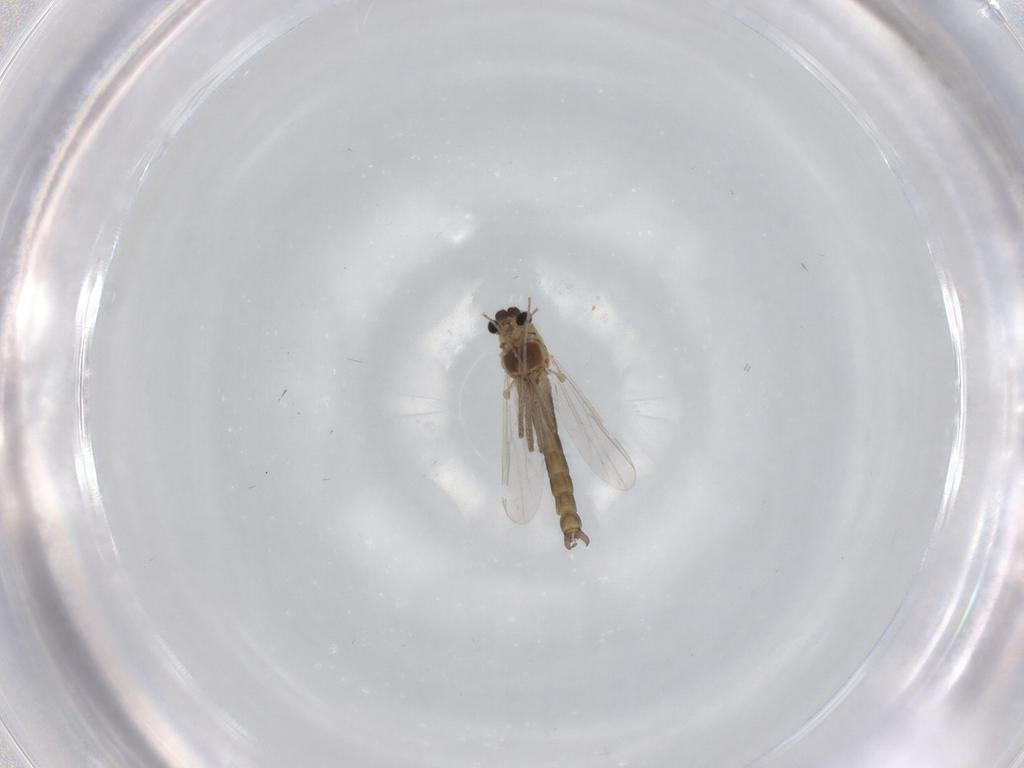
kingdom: Animalia
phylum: Arthropoda
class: Insecta
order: Diptera
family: Chironomidae
